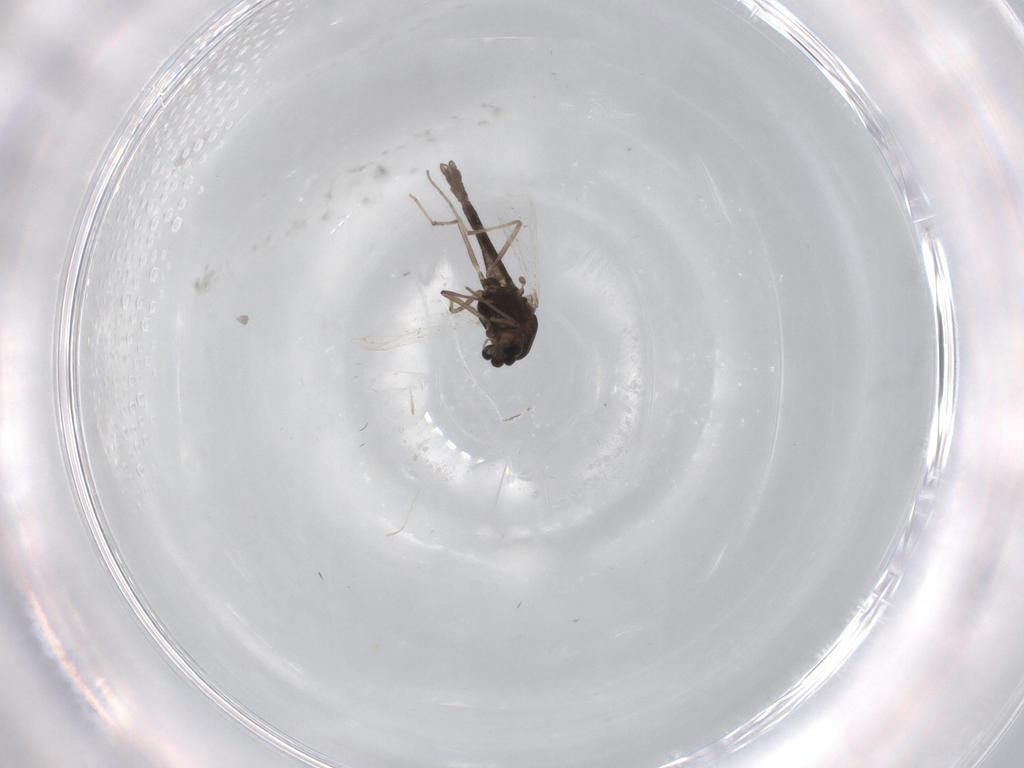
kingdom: Animalia
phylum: Arthropoda
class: Insecta
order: Diptera
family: Chironomidae
